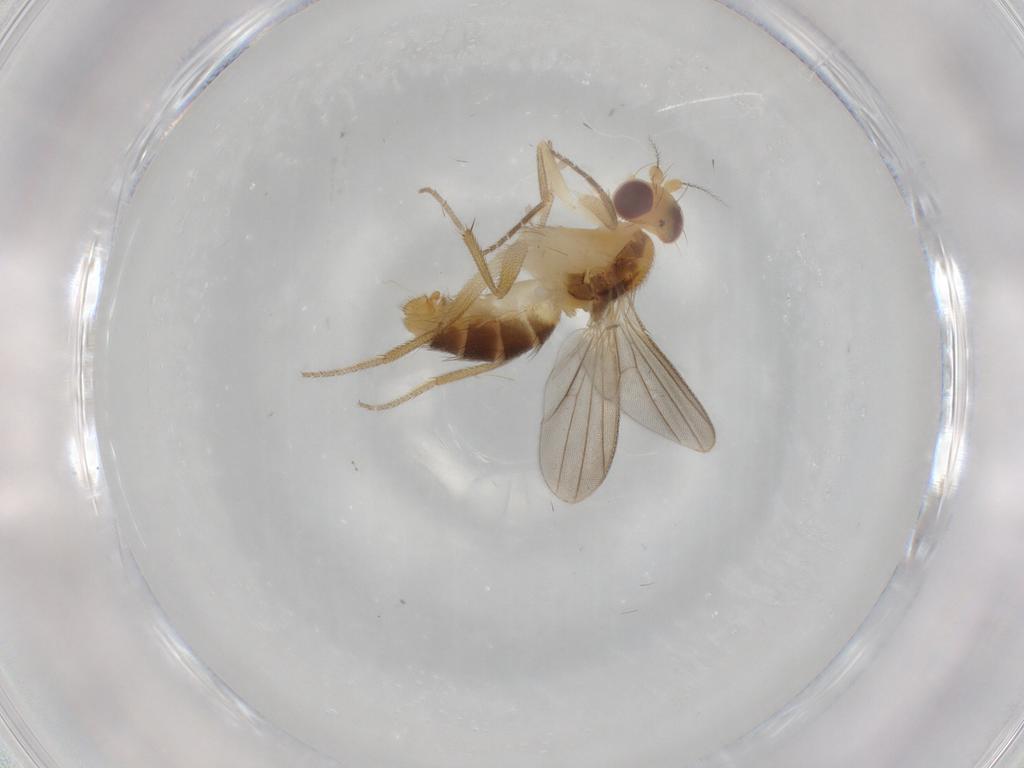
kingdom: Animalia
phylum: Arthropoda
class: Insecta
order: Diptera
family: Agromyzidae
